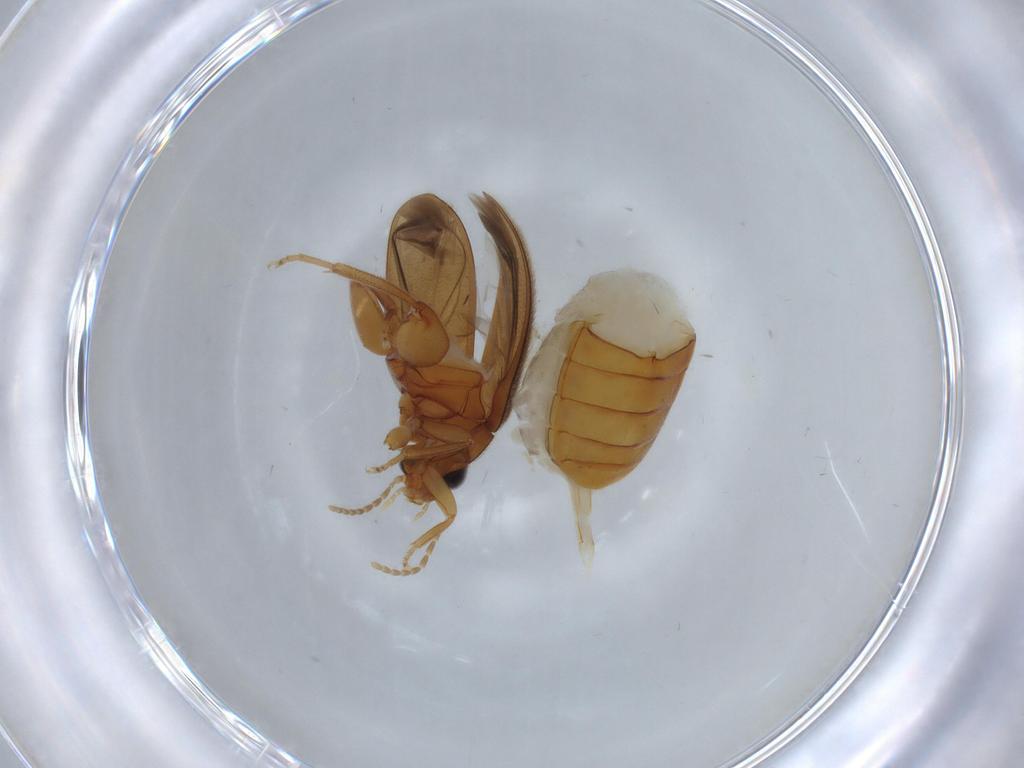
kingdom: Animalia
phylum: Arthropoda
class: Insecta
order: Coleoptera
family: Scirtidae
